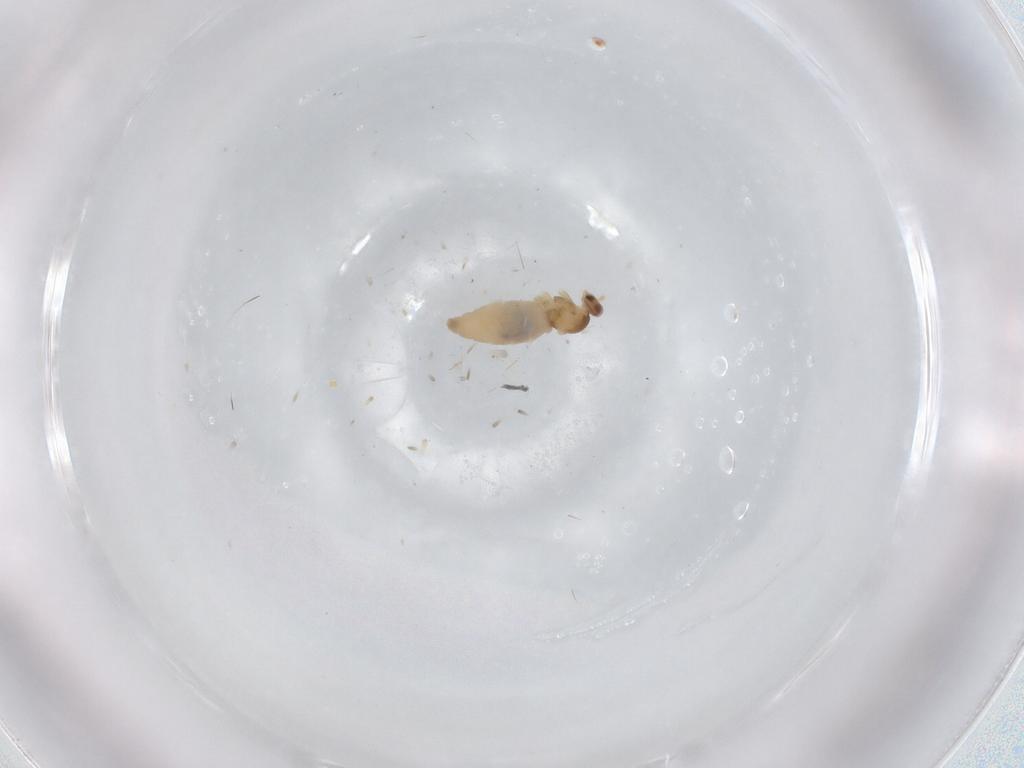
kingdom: Animalia
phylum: Arthropoda
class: Insecta
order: Diptera
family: Cecidomyiidae
